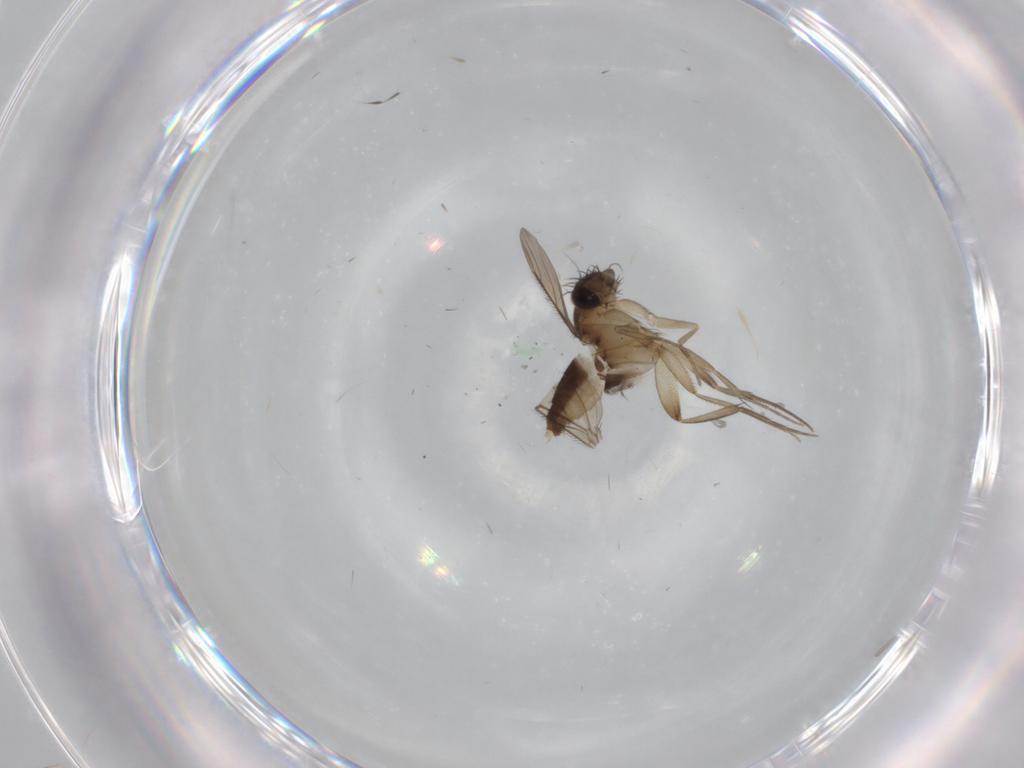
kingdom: Animalia
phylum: Arthropoda
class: Insecta
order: Diptera
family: Phoridae
